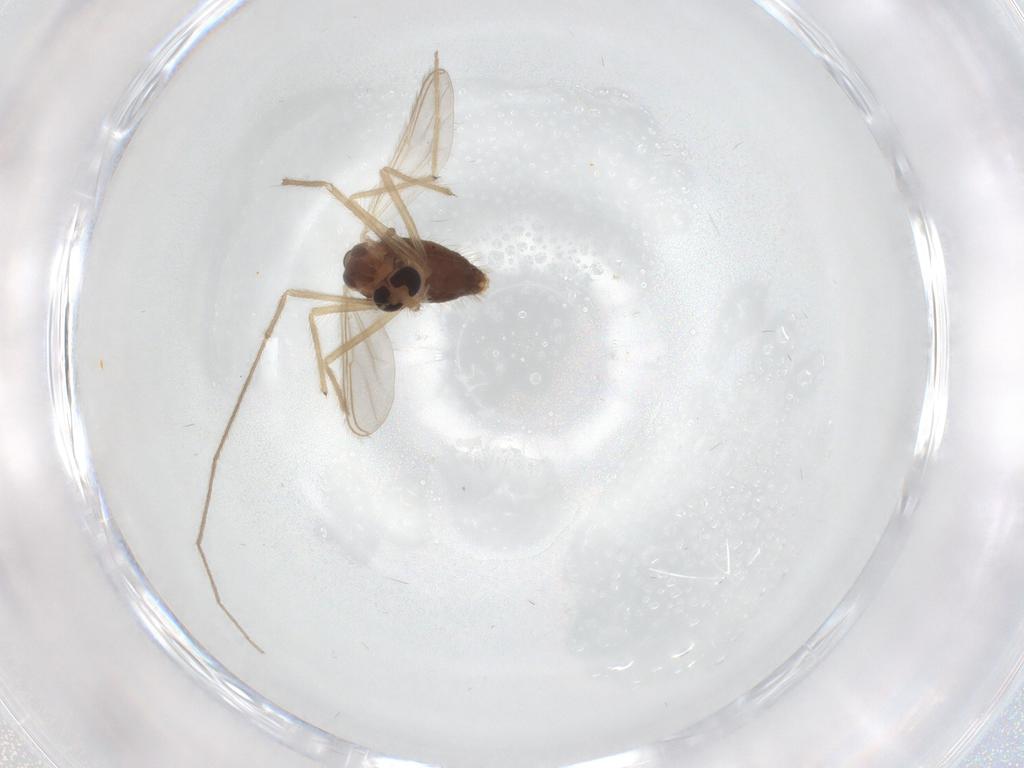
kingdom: Animalia
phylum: Arthropoda
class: Insecta
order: Diptera
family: Chironomidae
